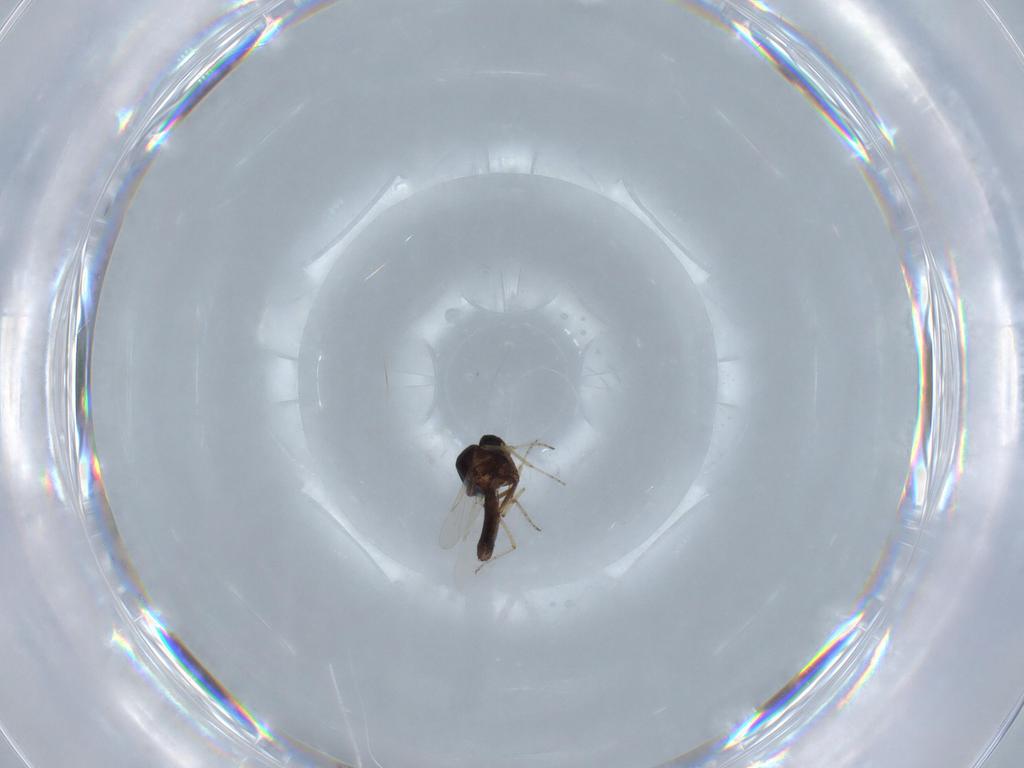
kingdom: Animalia
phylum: Arthropoda
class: Insecta
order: Diptera
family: Ceratopogonidae
